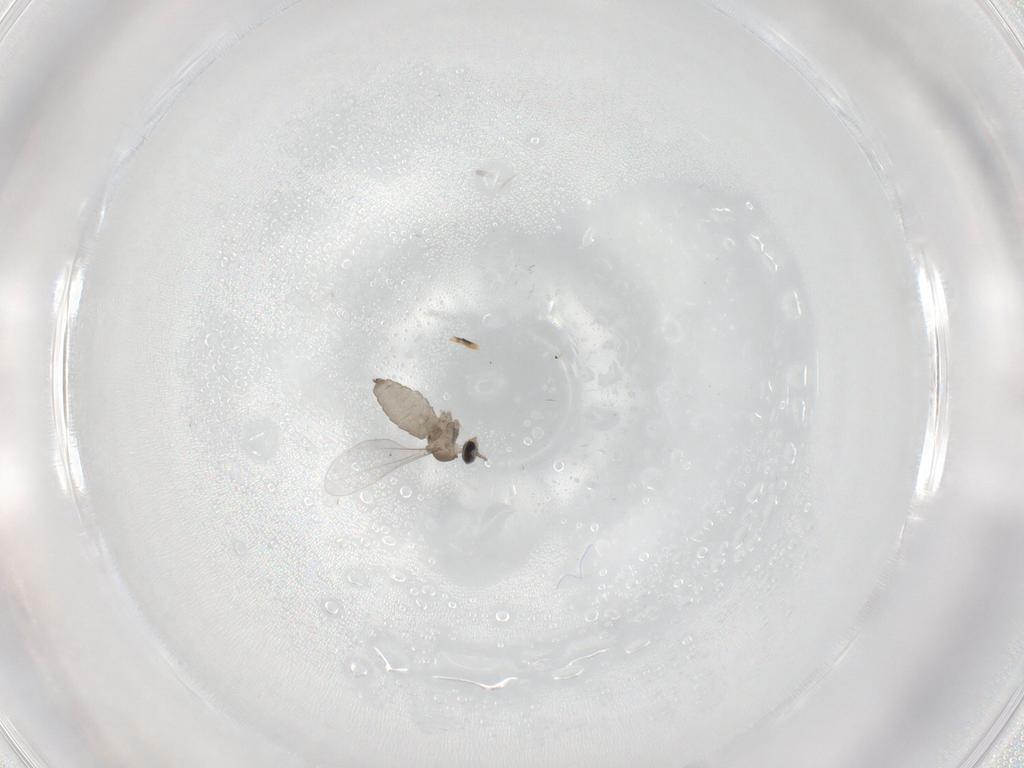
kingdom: Animalia
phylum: Arthropoda
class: Insecta
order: Diptera
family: Cecidomyiidae
